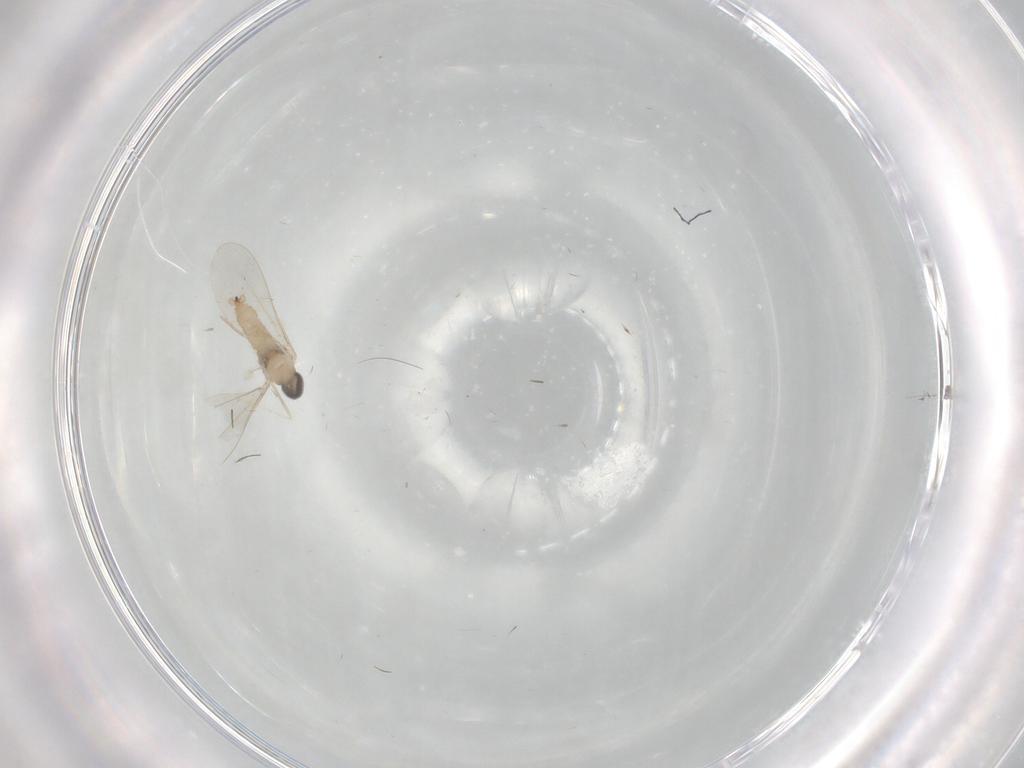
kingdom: Animalia
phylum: Arthropoda
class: Insecta
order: Diptera
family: Cecidomyiidae
